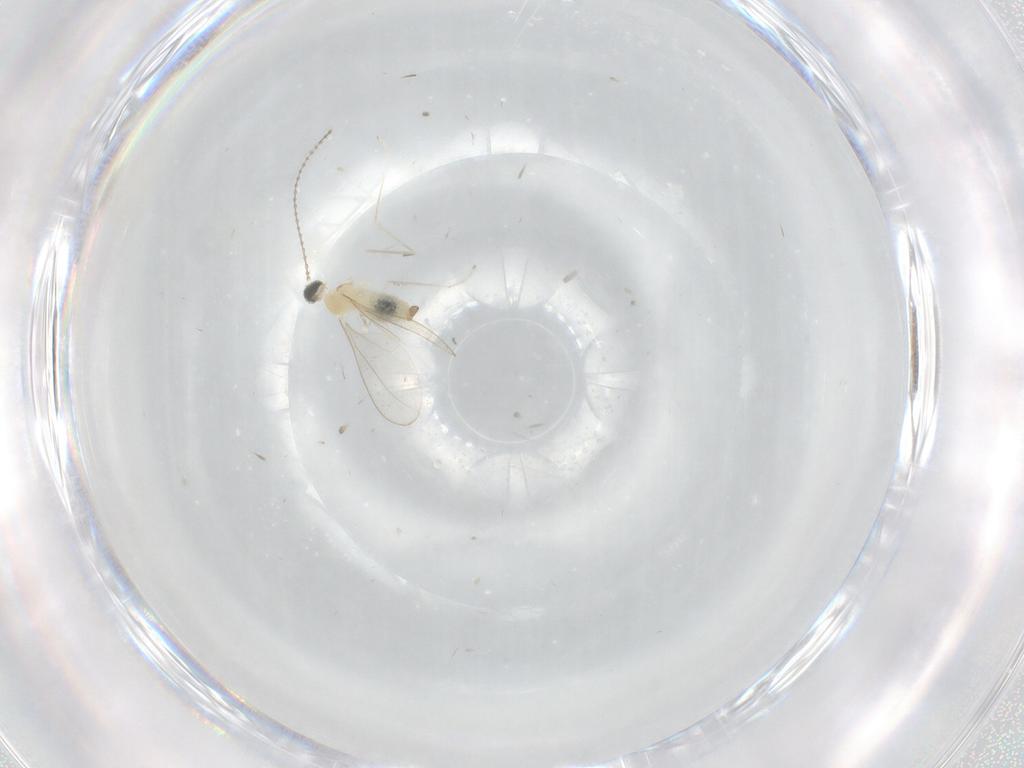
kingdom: Animalia
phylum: Arthropoda
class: Insecta
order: Diptera
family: Cecidomyiidae
